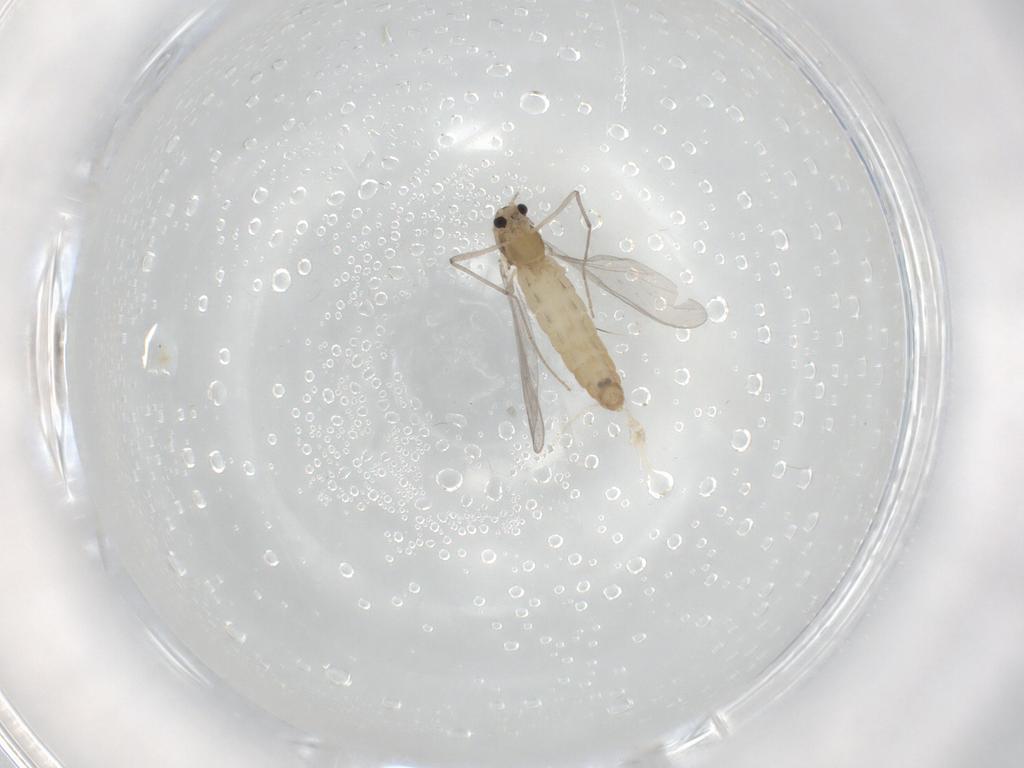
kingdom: Animalia
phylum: Arthropoda
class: Insecta
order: Diptera
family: Chironomidae
